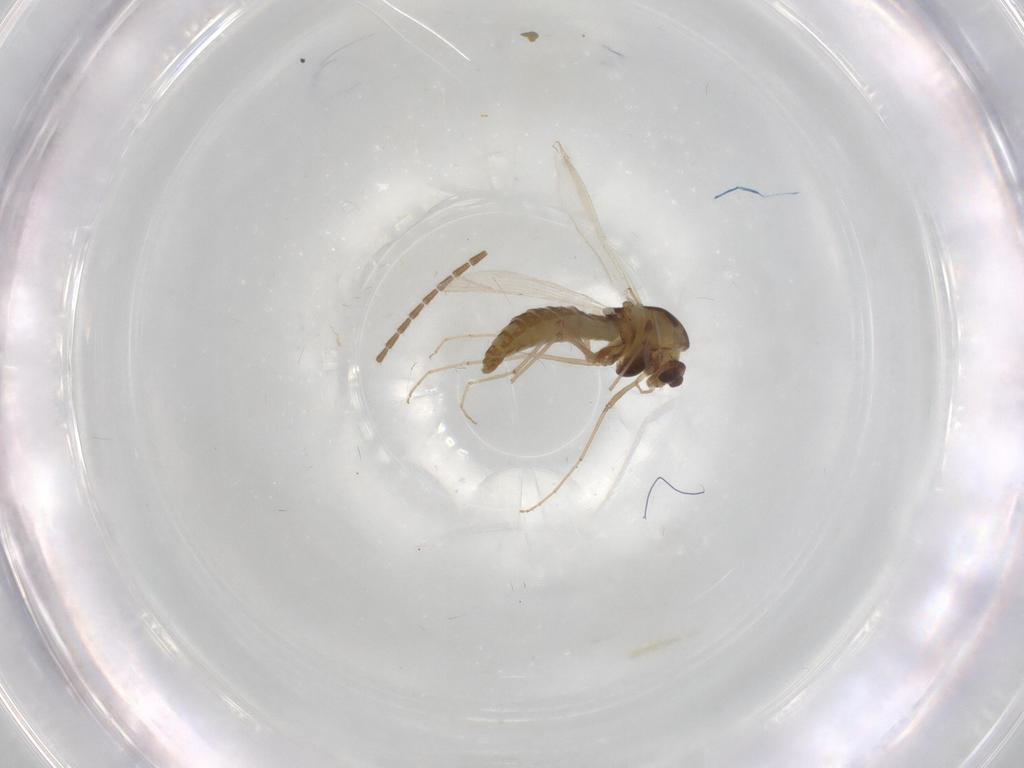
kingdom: Animalia
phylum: Arthropoda
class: Insecta
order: Diptera
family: Chironomidae
